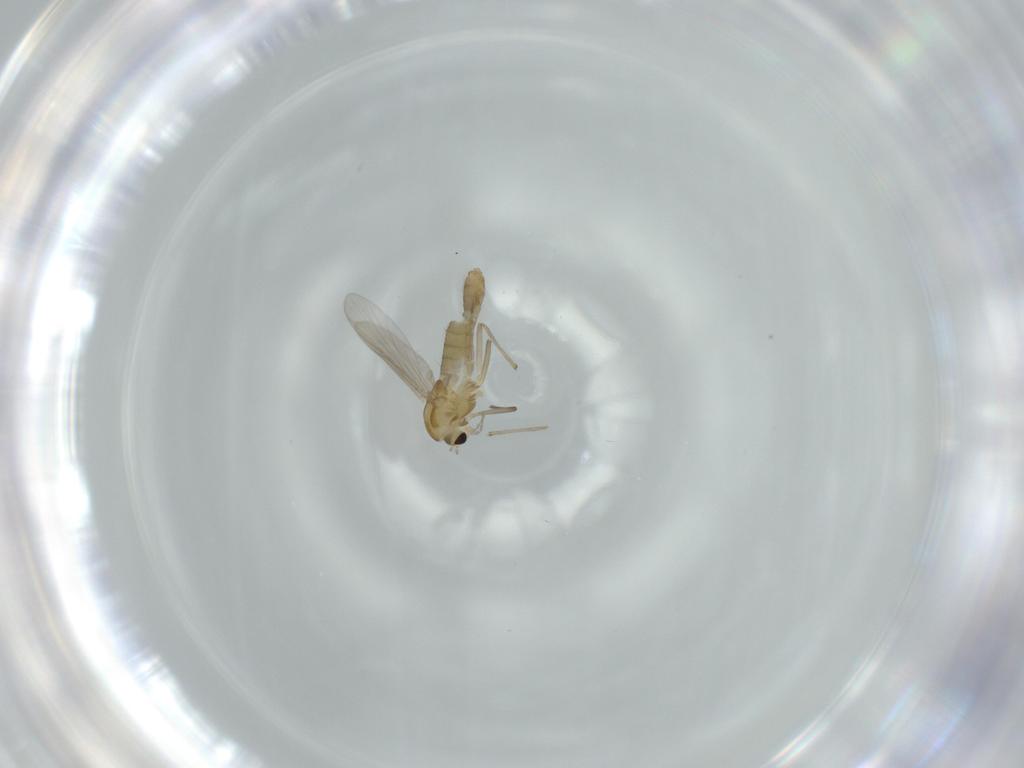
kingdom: Animalia
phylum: Arthropoda
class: Insecta
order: Diptera
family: Chironomidae
